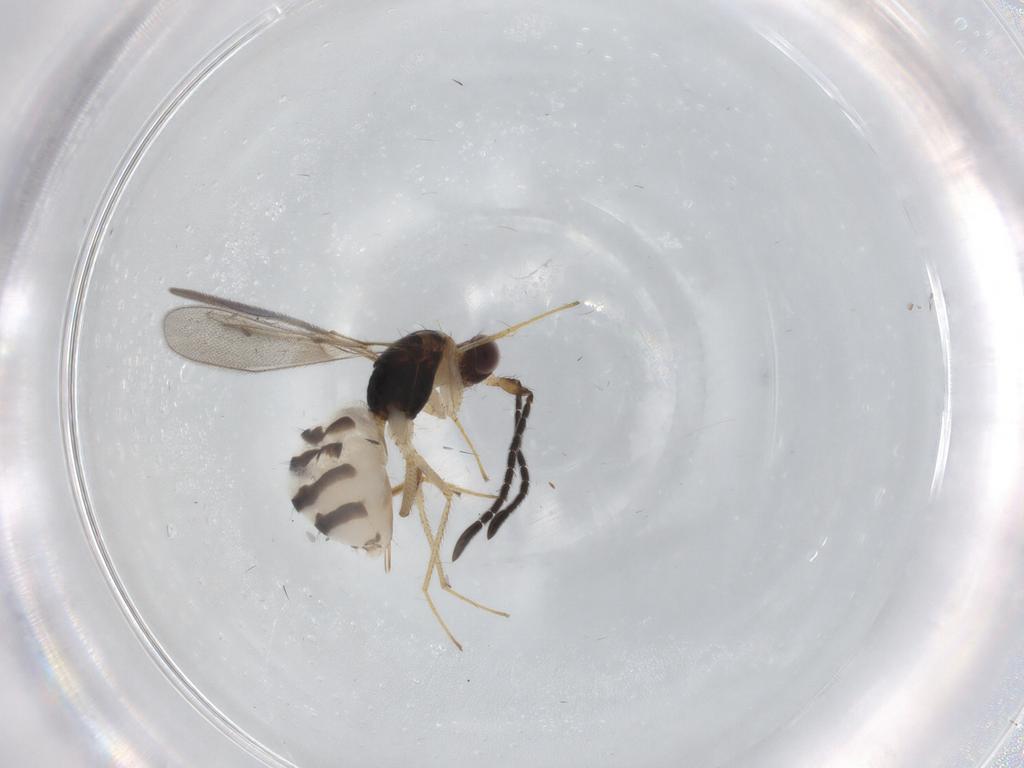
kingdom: Animalia
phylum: Arthropoda
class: Insecta
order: Hymenoptera
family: Mymaridae
